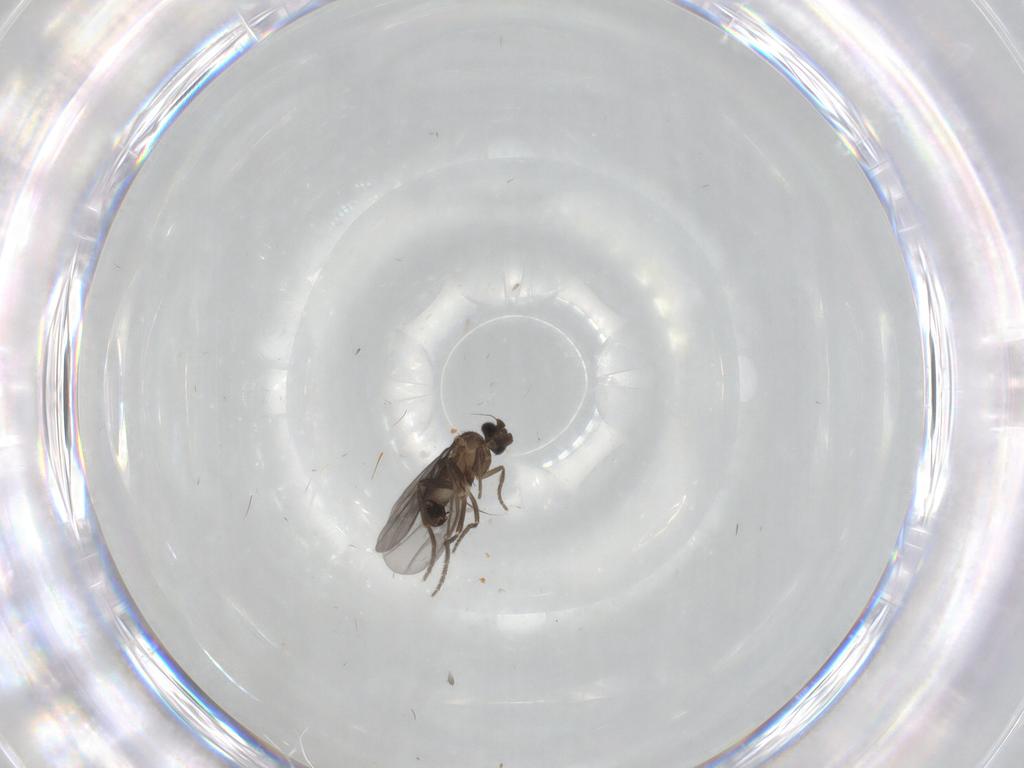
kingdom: Animalia
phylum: Arthropoda
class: Insecta
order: Diptera
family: Phoridae
